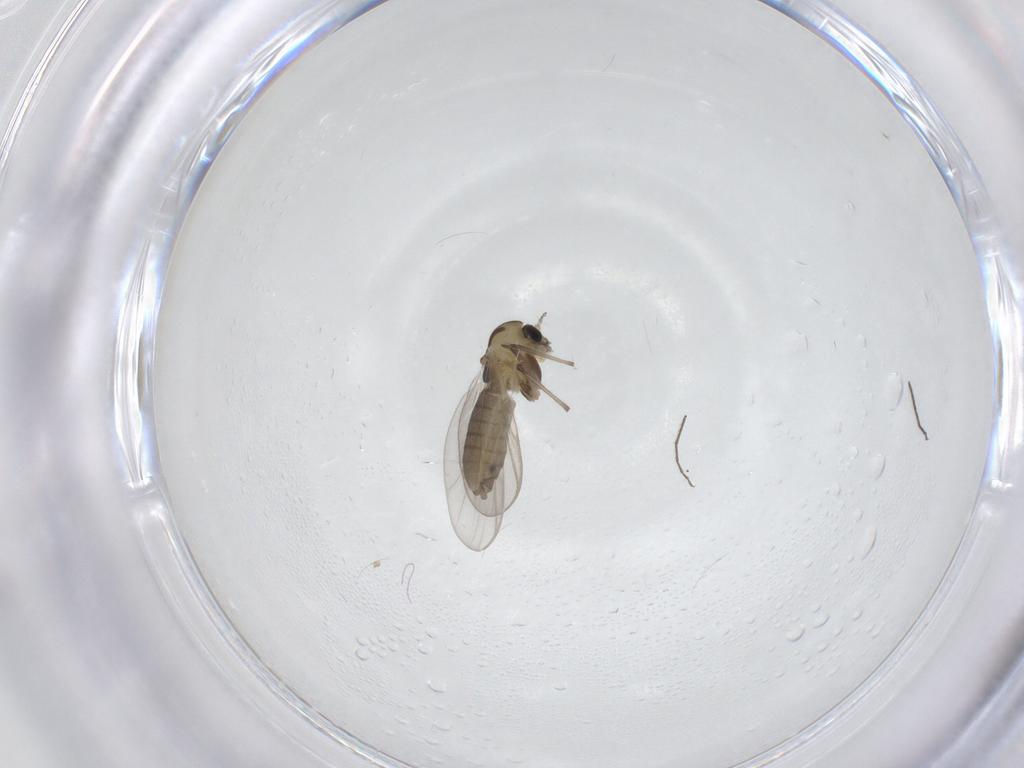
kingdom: Animalia
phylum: Arthropoda
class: Insecta
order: Diptera
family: Chironomidae
